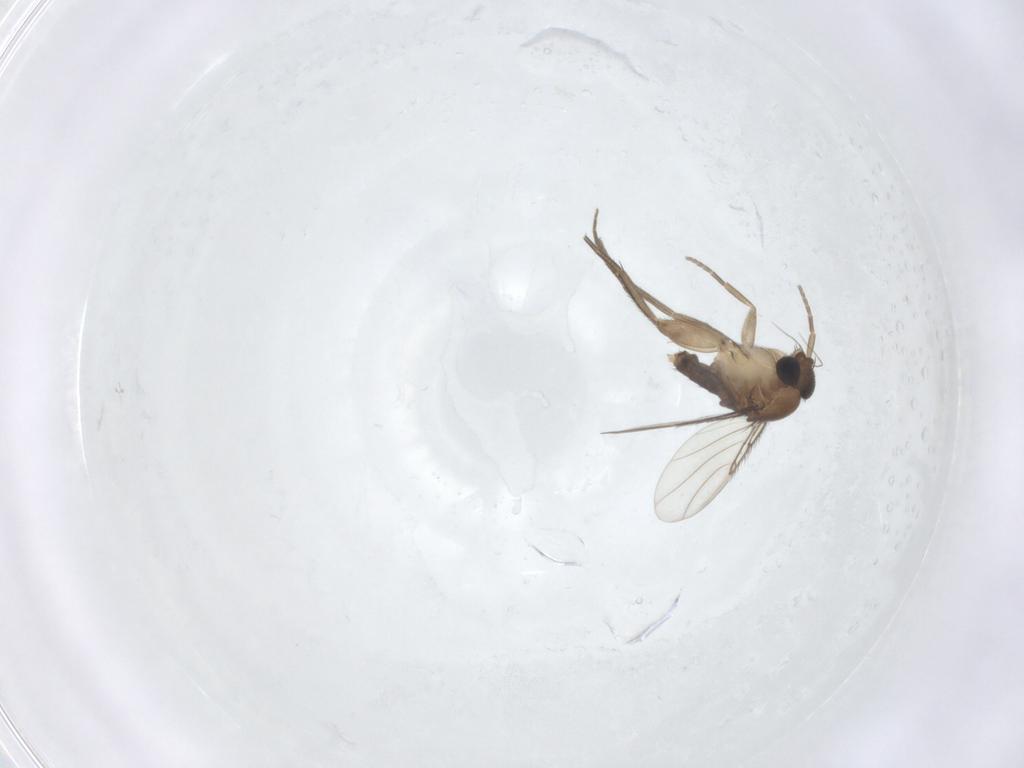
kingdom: Animalia
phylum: Arthropoda
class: Insecta
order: Diptera
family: Phoridae
